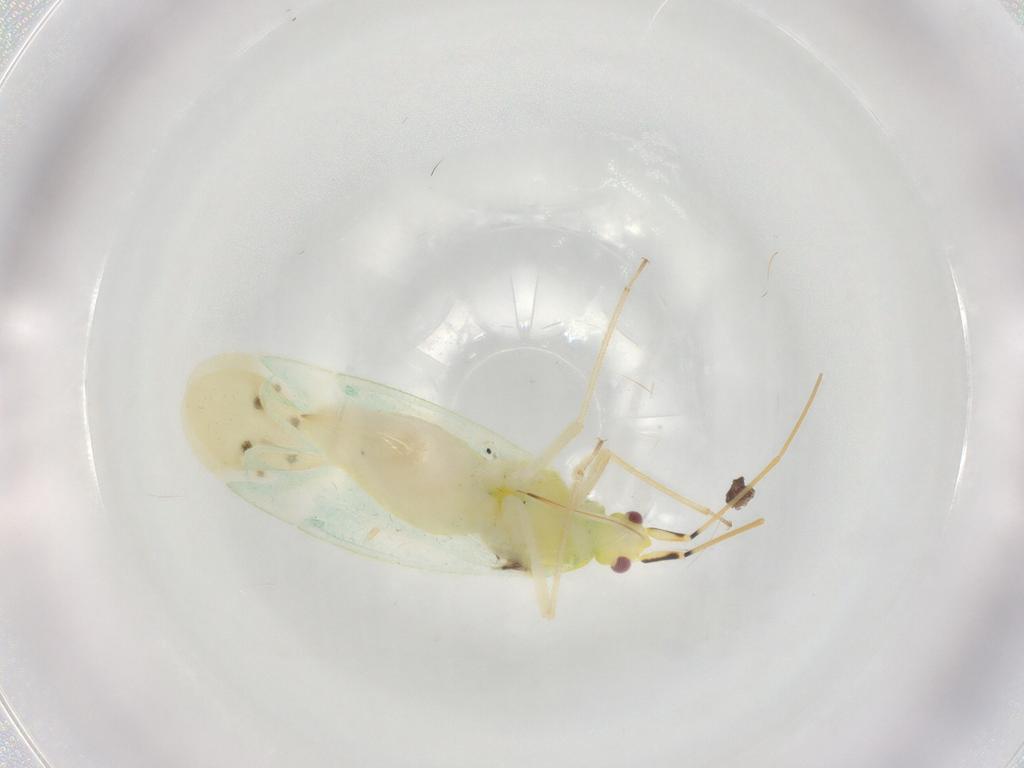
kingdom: Animalia
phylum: Arthropoda
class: Insecta
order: Hemiptera
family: Miridae
